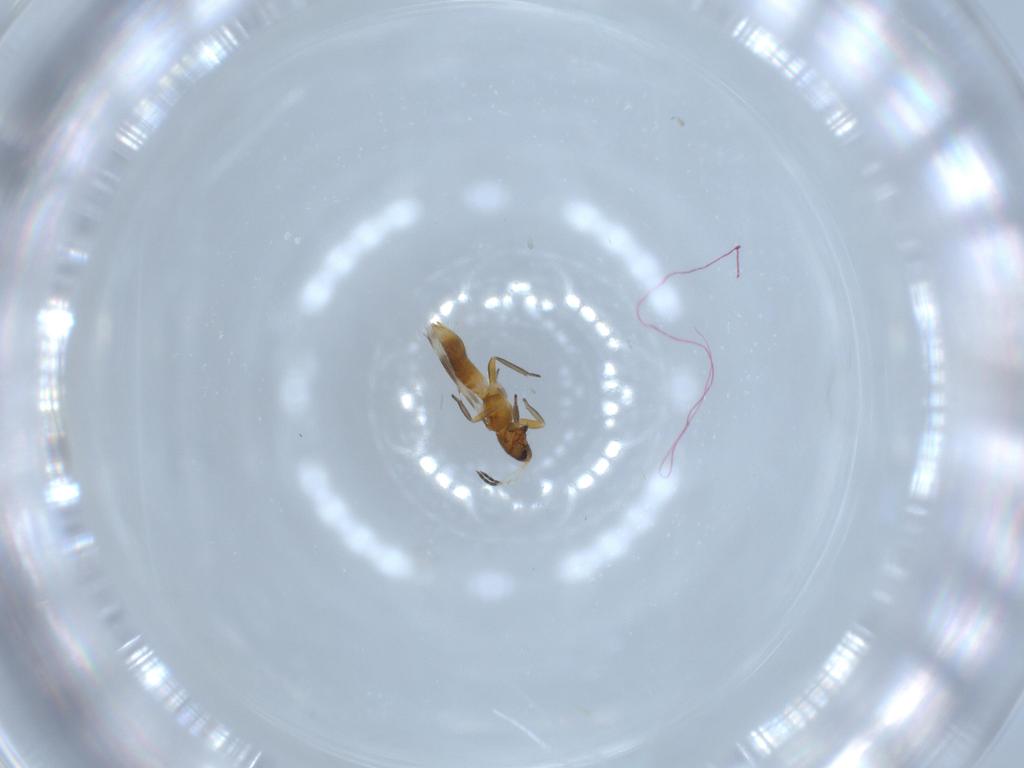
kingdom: Animalia
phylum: Arthropoda
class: Insecta
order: Thysanoptera
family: Aeolothripidae
